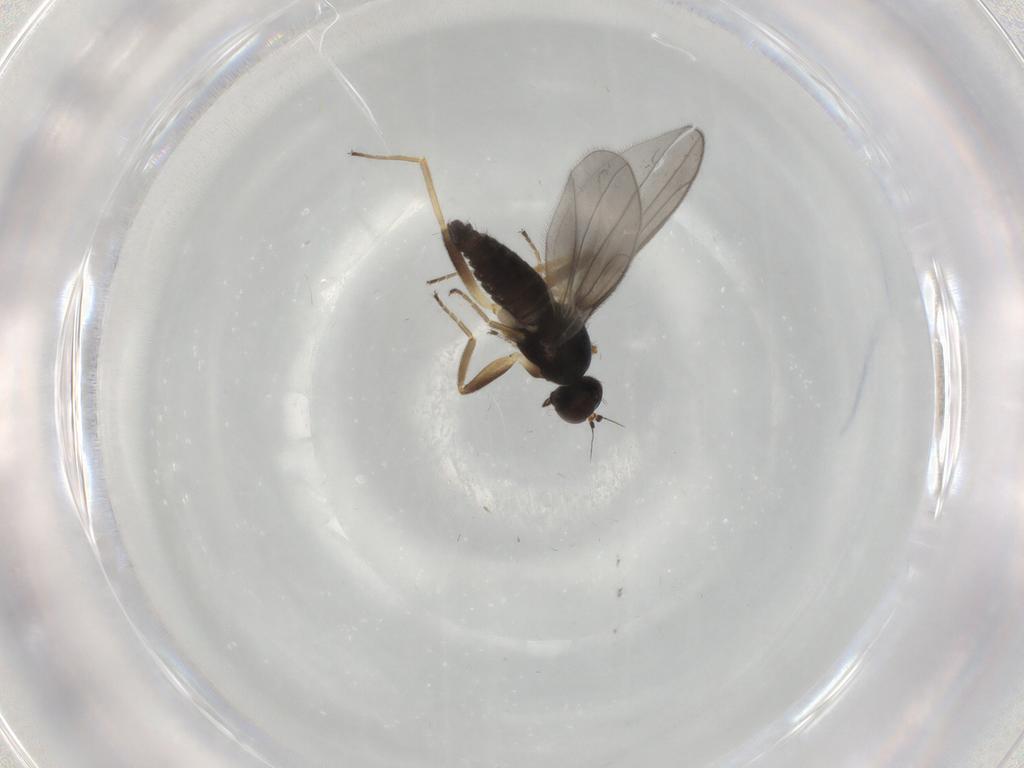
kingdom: Animalia
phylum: Arthropoda
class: Insecta
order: Diptera
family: Hybotidae
